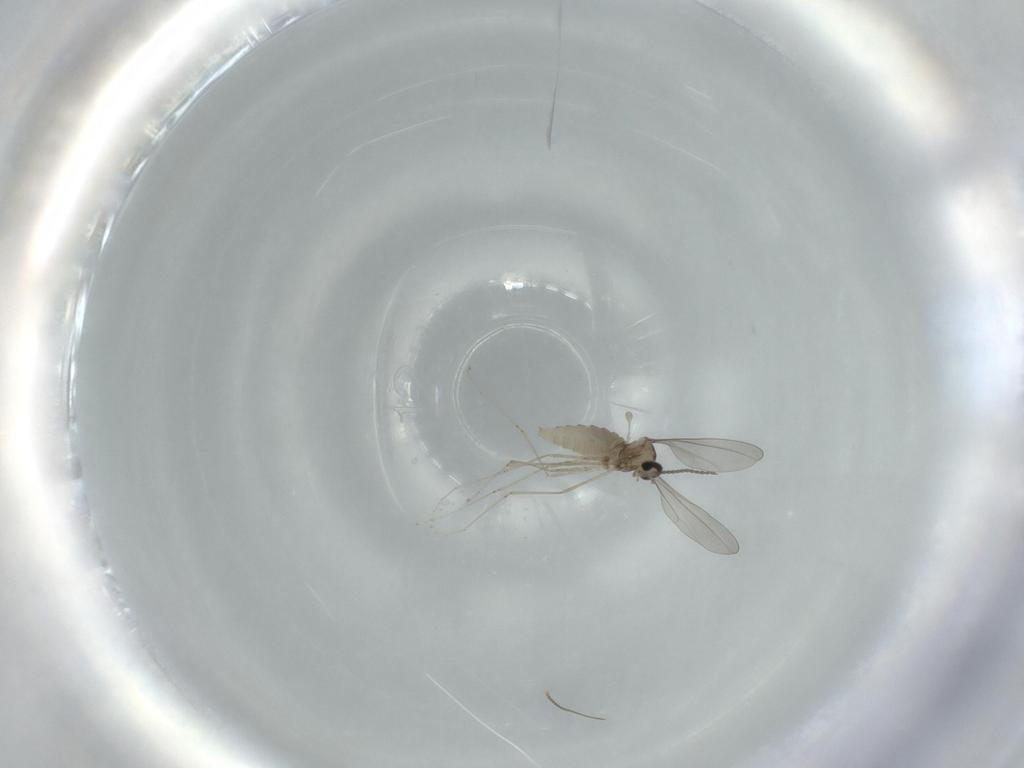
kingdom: Animalia
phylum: Arthropoda
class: Insecta
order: Diptera
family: Cecidomyiidae
